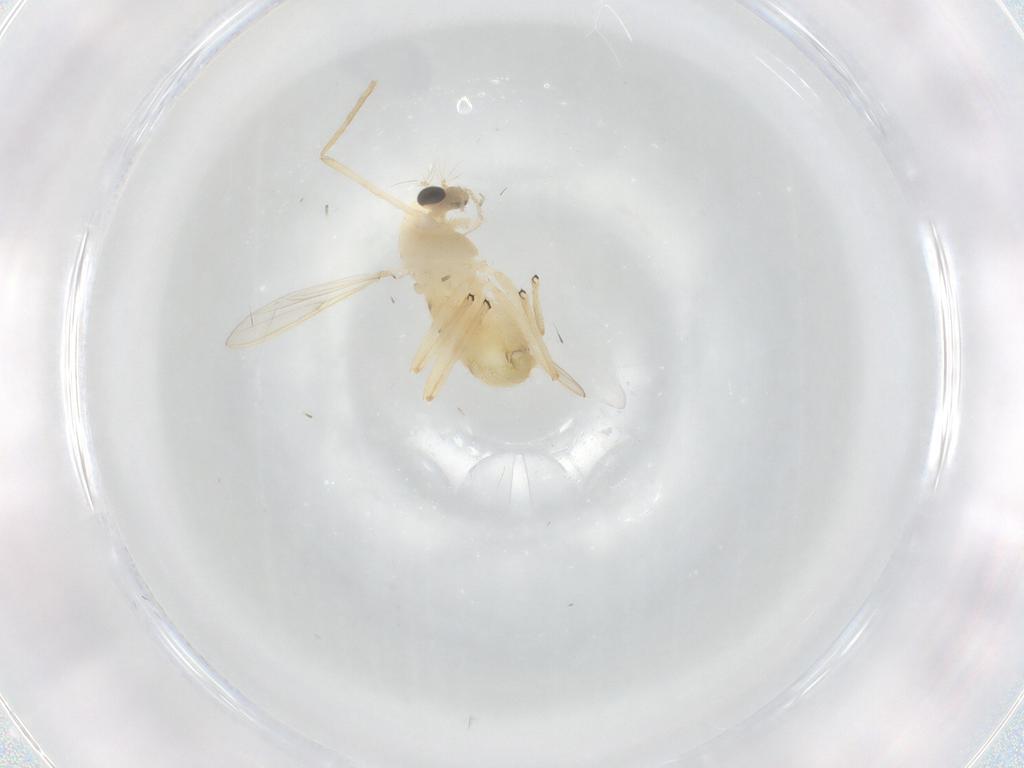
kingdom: Animalia
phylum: Arthropoda
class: Insecta
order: Diptera
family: Chironomidae
